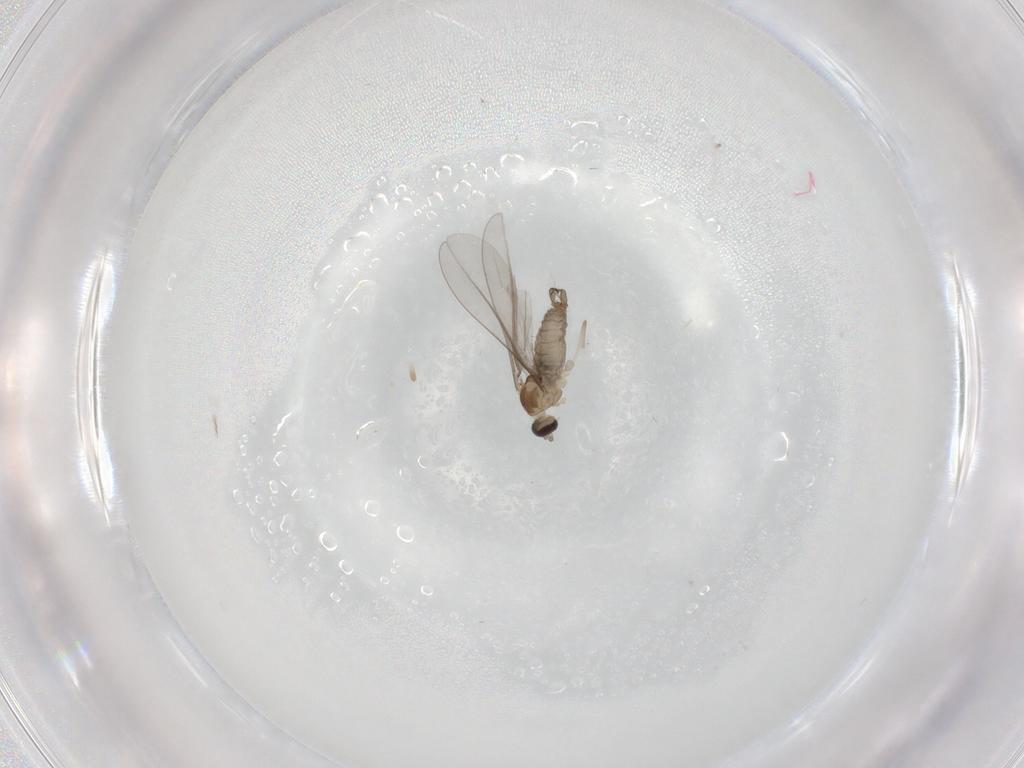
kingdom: Animalia
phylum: Arthropoda
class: Insecta
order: Diptera
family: Cecidomyiidae
